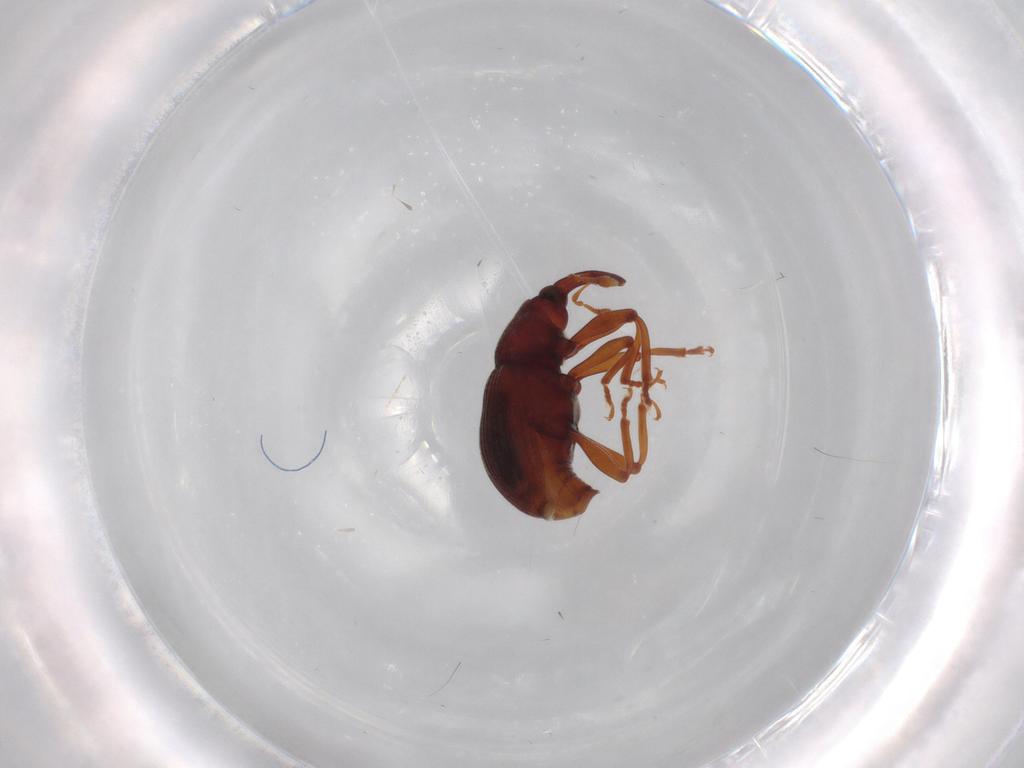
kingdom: Animalia
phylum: Arthropoda
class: Insecta
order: Coleoptera
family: Carabidae
